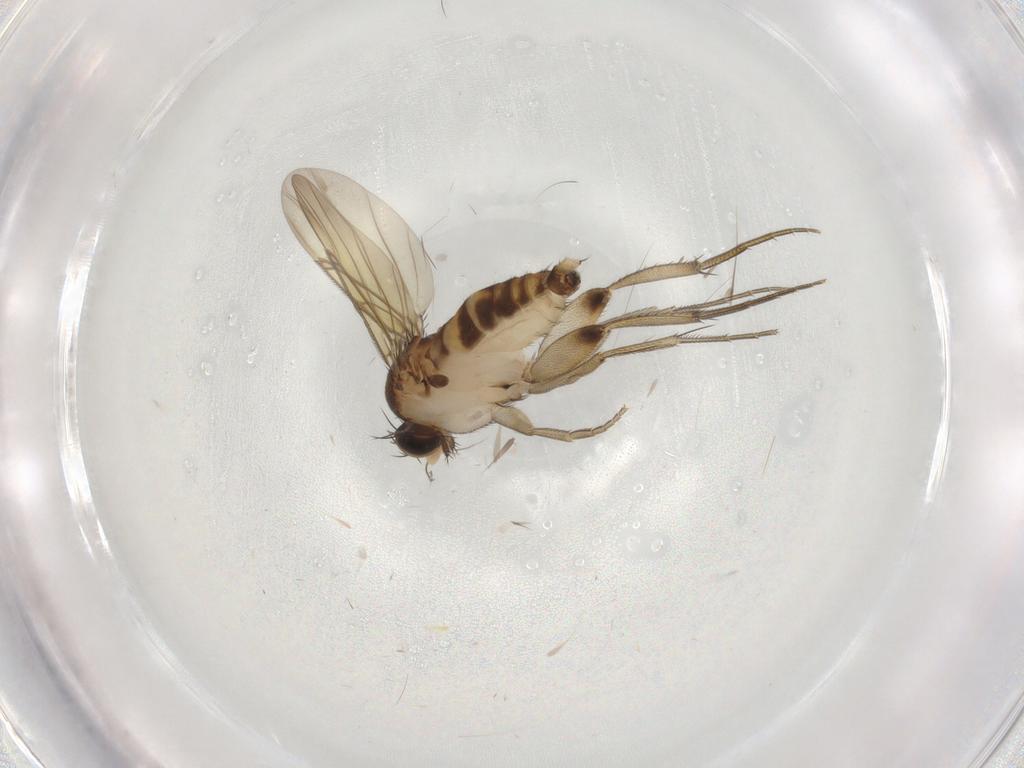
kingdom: Animalia
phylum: Arthropoda
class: Insecta
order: Diptera
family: Phoridae
